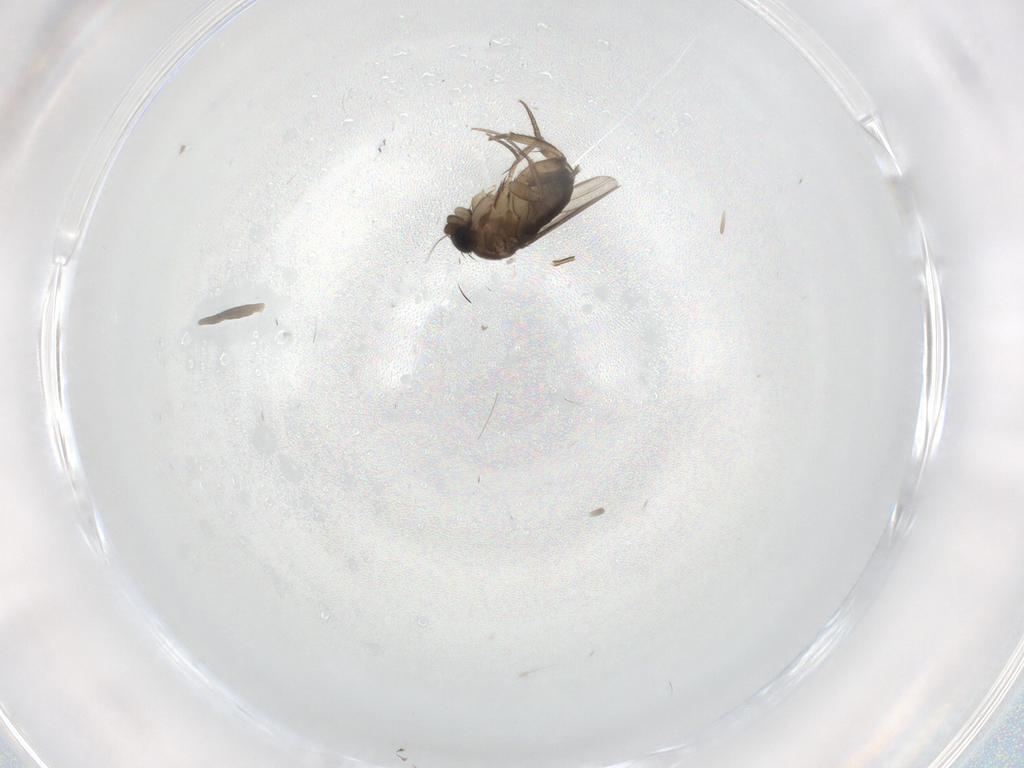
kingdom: Animalia
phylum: Arthropoda
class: Insecta
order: Diptera
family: Phoridae
